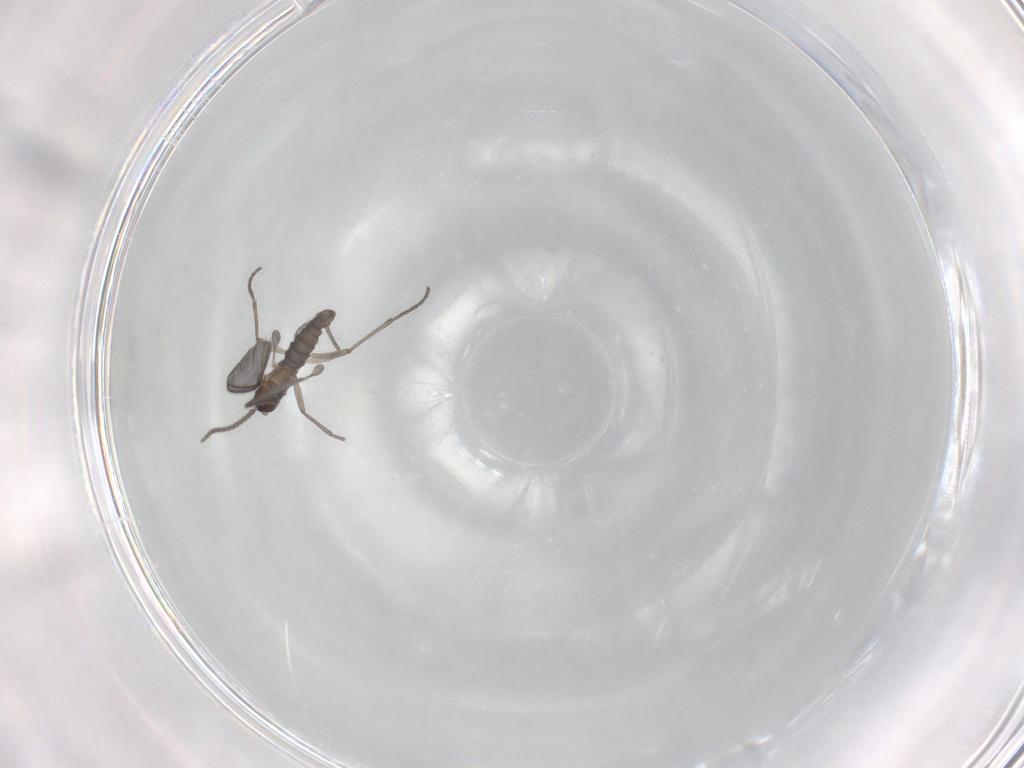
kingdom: Animalia
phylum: Arthropoda
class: Insecta
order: Diptera
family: Sciaridae
